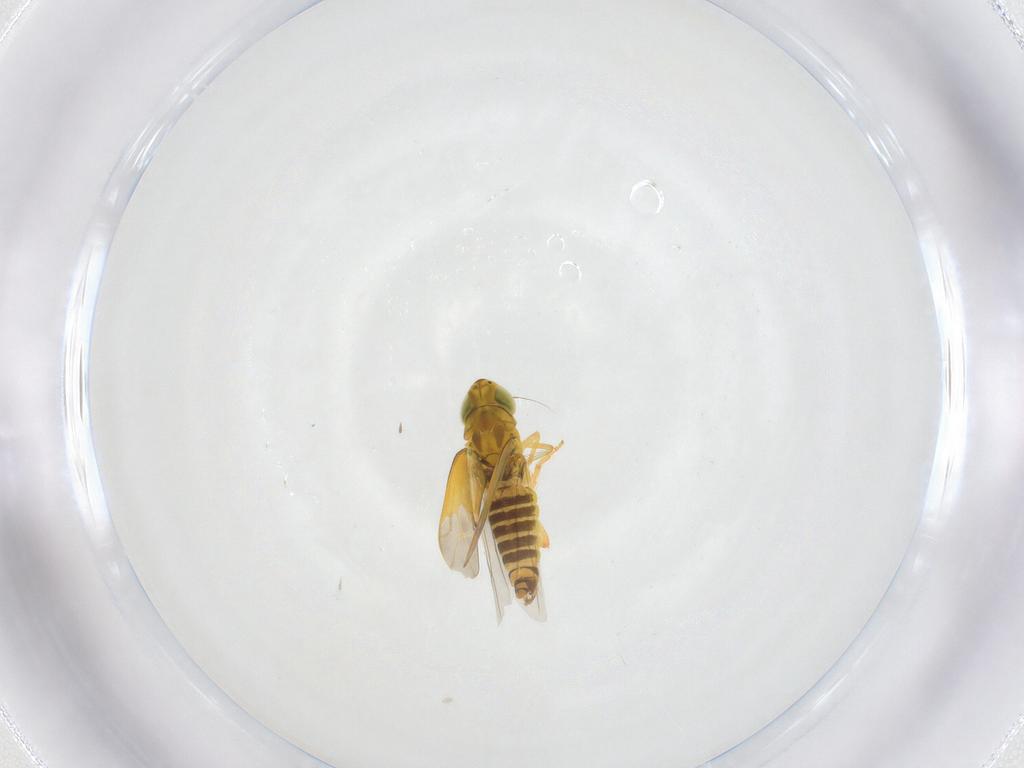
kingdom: Animalia
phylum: Arthropoda
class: Insecta
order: Hemiptera
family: Cicadellidae
